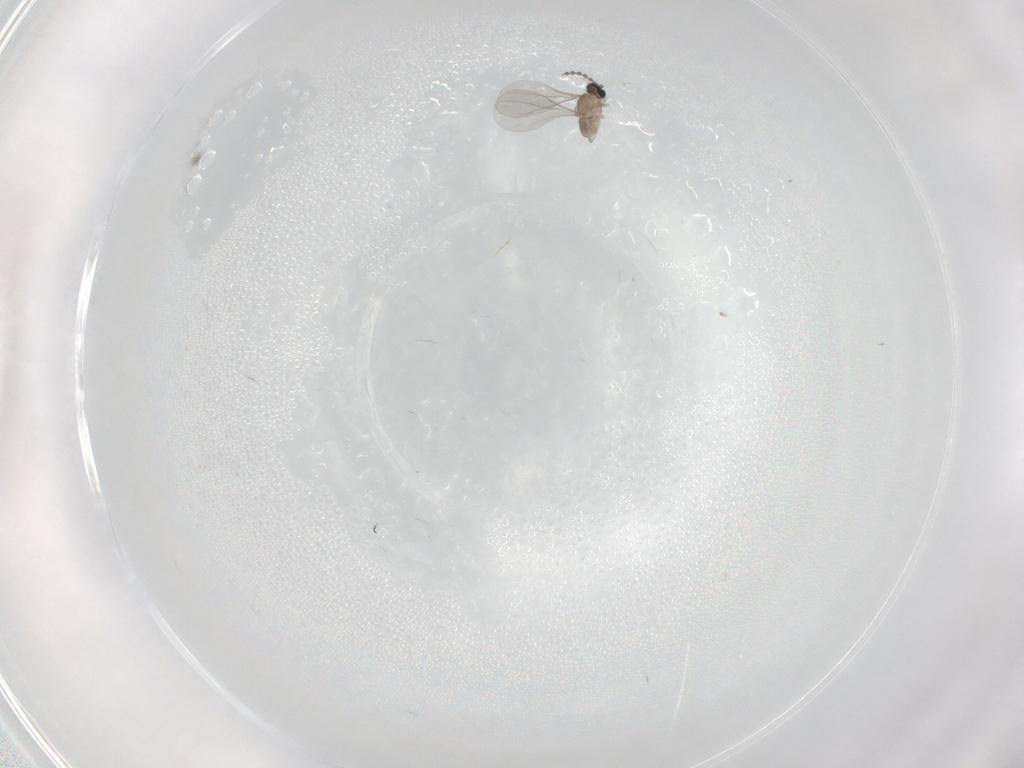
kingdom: Animalia
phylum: Arthropoda
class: Insecta
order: Diptera
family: Cecidomyiidae
